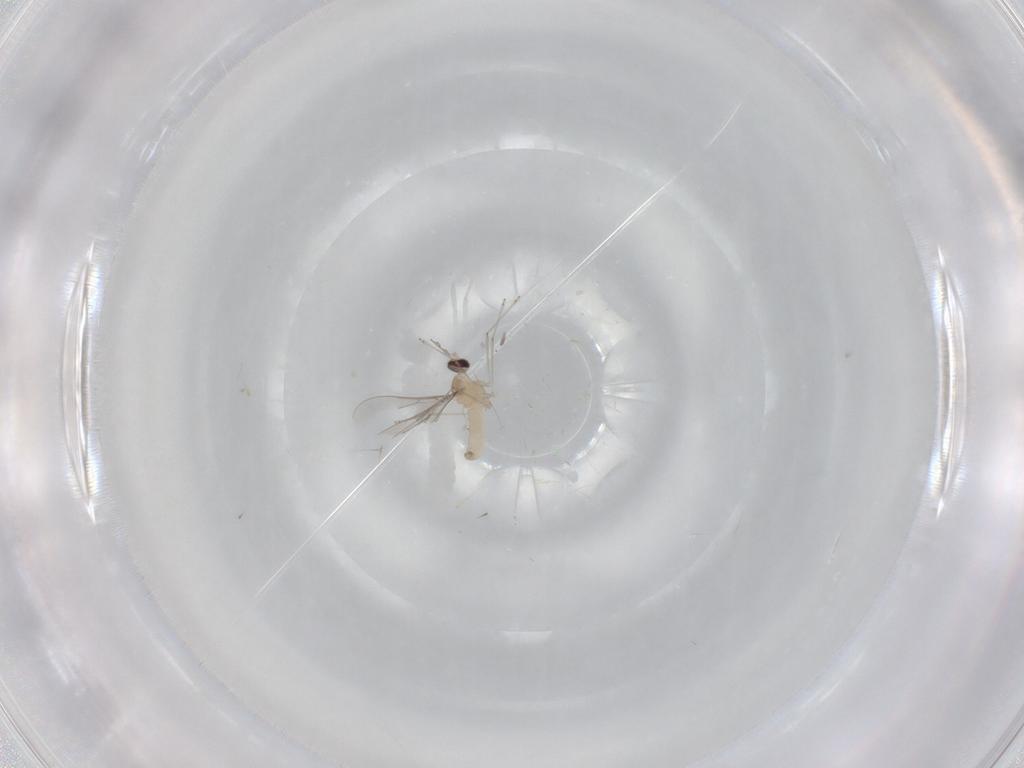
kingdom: Animalia
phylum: Arthropoda
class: Insecta
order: Diptera
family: Cecidomyiidae
